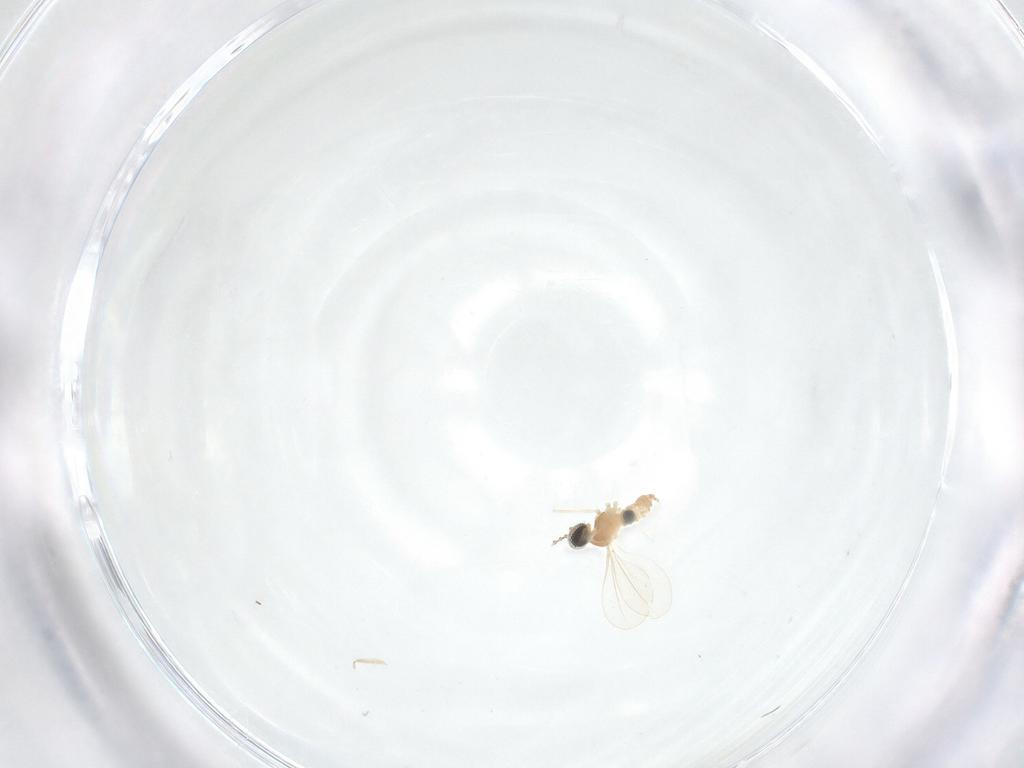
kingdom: Animalia
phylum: Arthropoda
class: Insecta
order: Diptera
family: Cecidomyiidae
